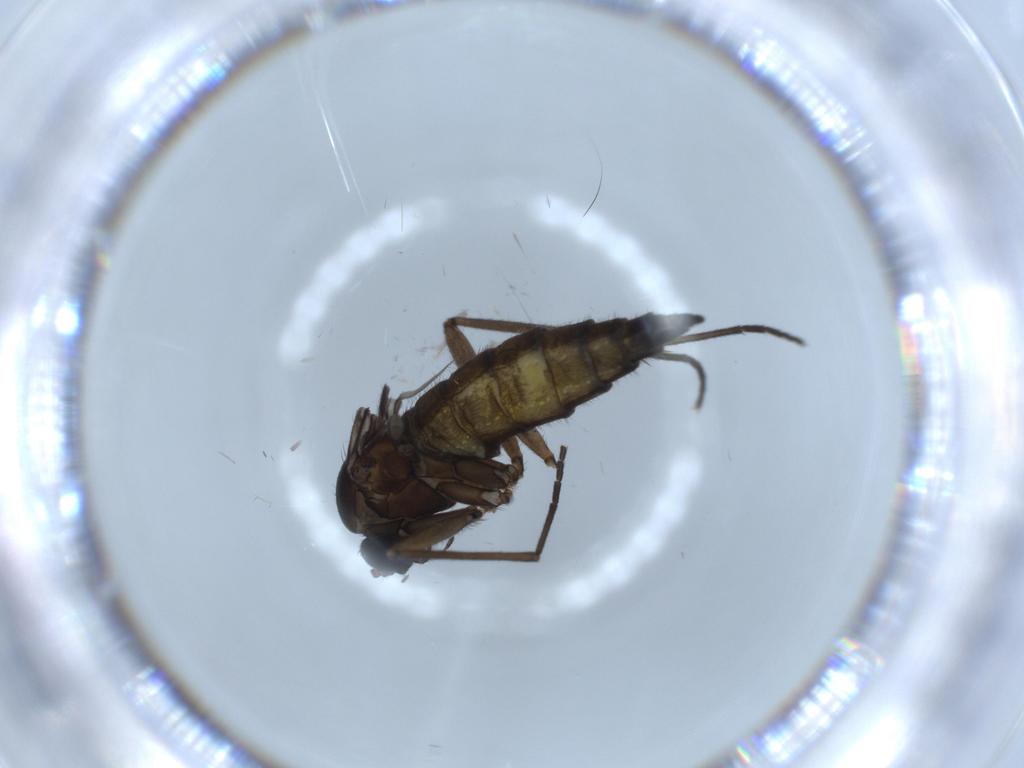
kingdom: Animalia
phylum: Arthropoda
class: Insecta
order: Diptera
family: Sciaridae
